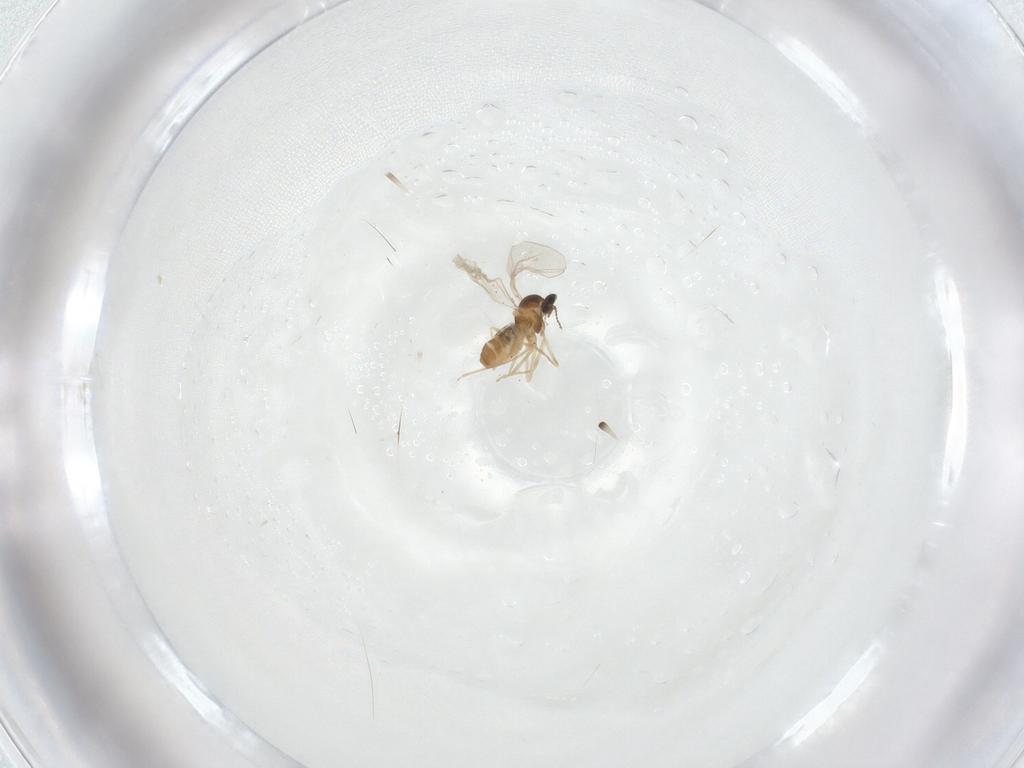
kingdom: Animalia
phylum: Arthropoda
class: Insecta
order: Diptera
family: Cecidomyiidae
